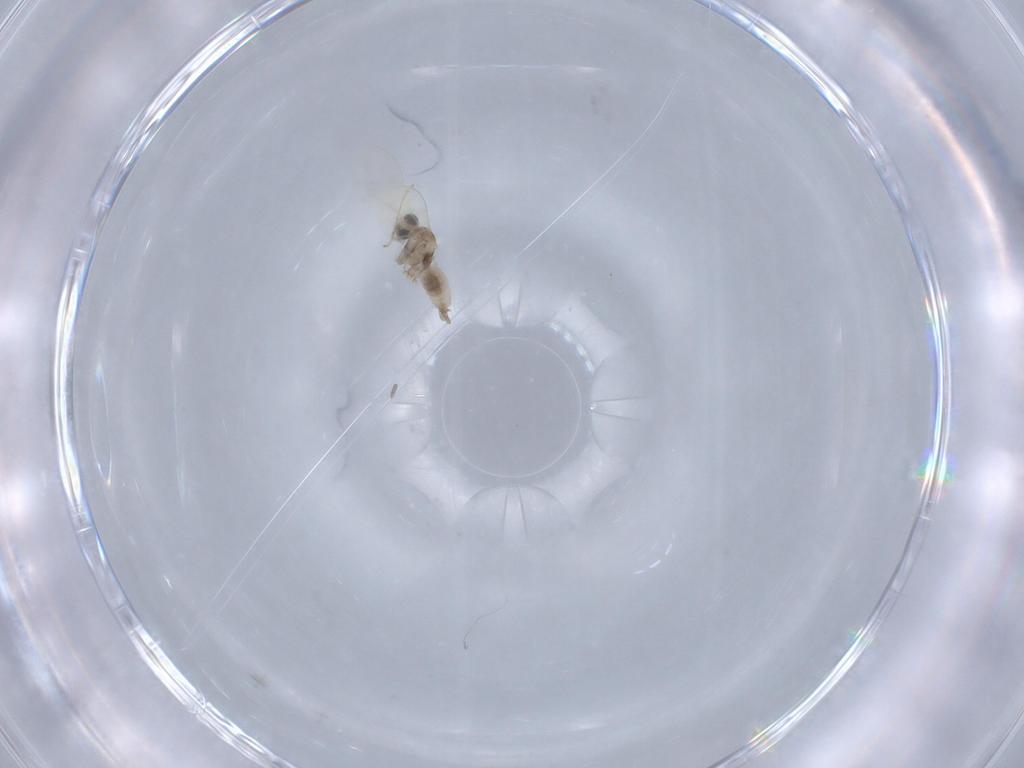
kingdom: Animalia
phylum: Arthropoda
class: Insecta
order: Diptera
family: Cecidomyiidae
